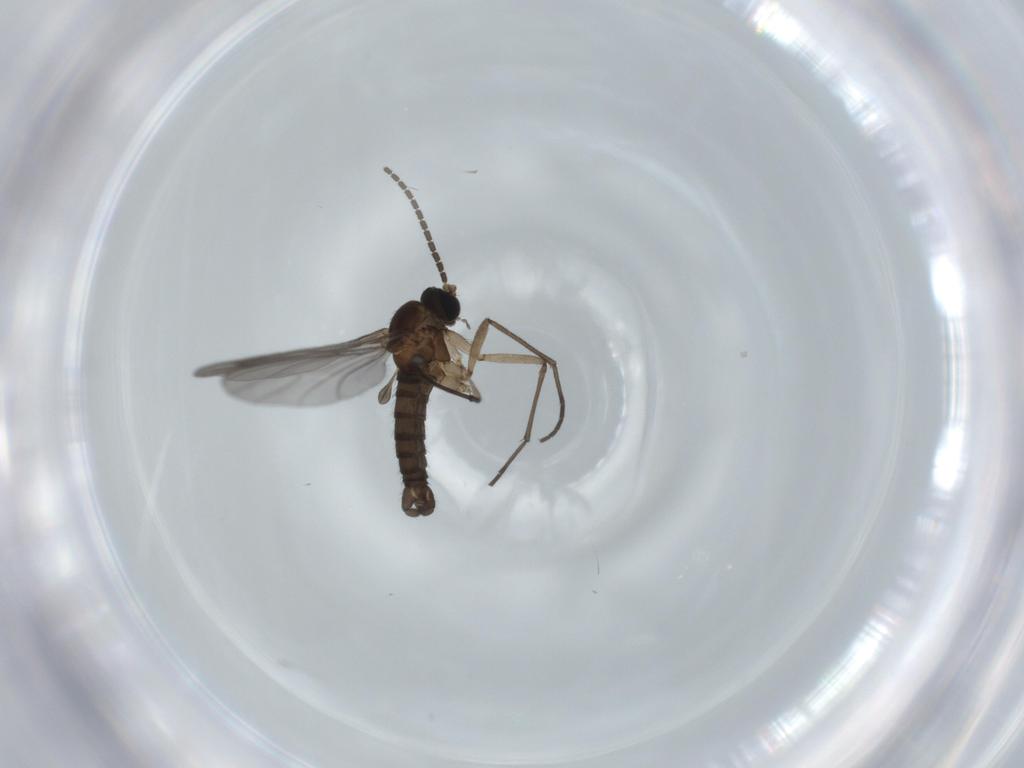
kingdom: Animalia
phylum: Arthropoda
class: Insecta
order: Diptera
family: Sciaridae
